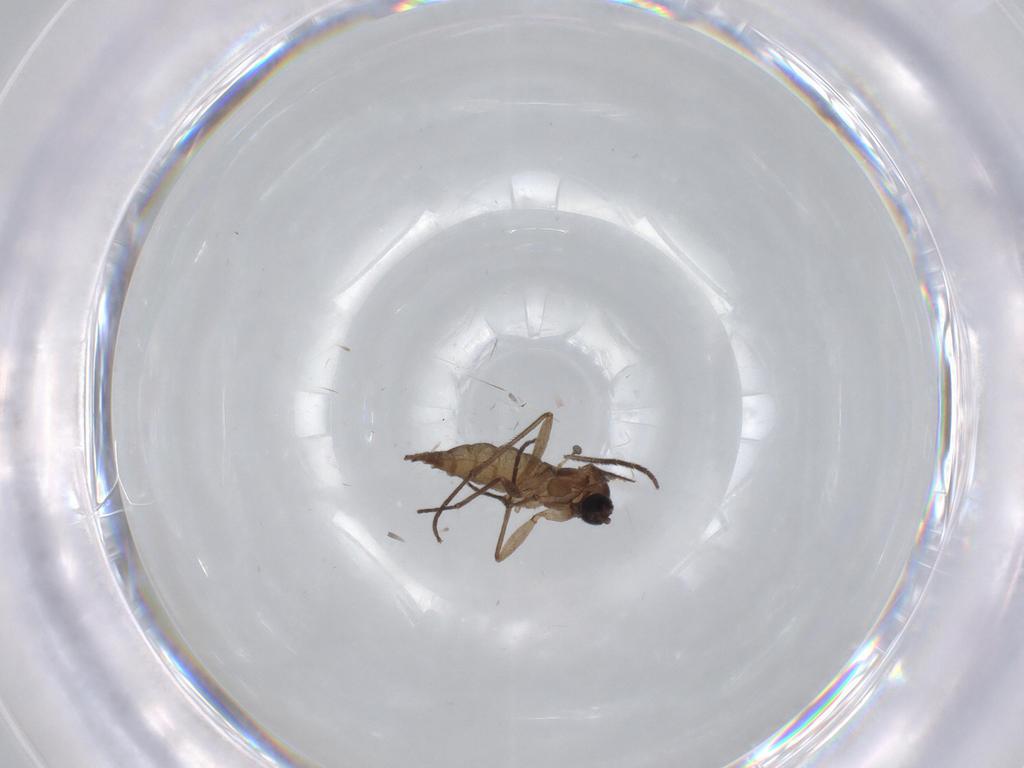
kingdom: Animalia
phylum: Arthropoda
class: Insecta
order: Diptera
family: Sciaridae
